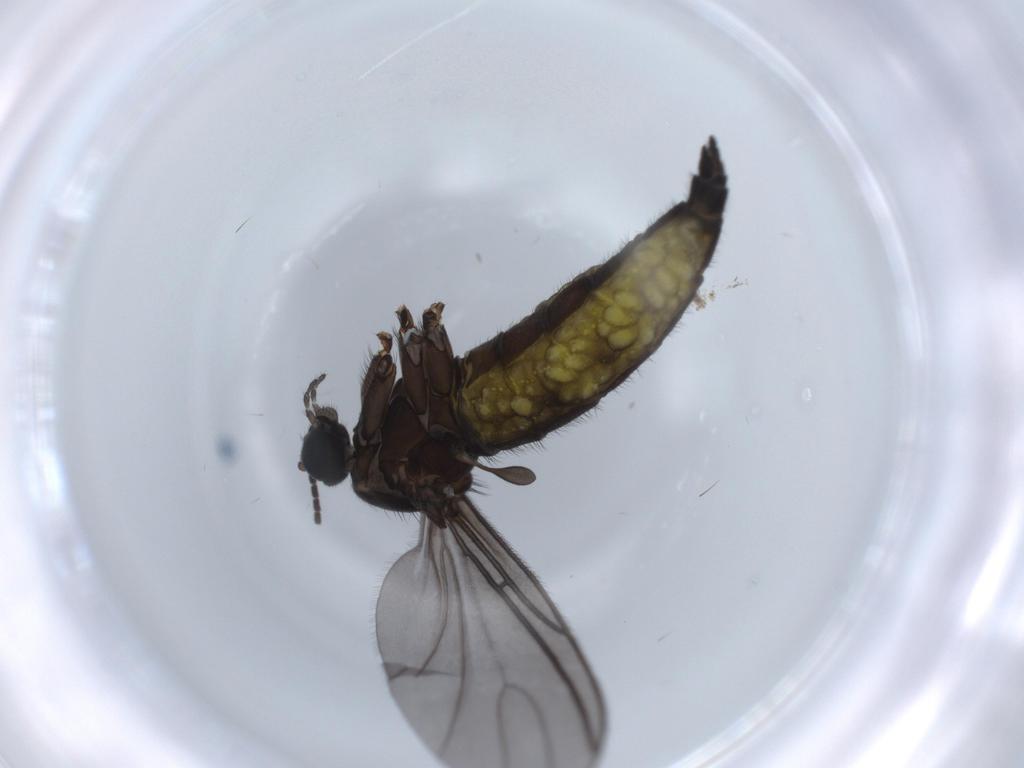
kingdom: Animalia
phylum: Arthropoda
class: Insecta
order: Diptera
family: Sciaridae
